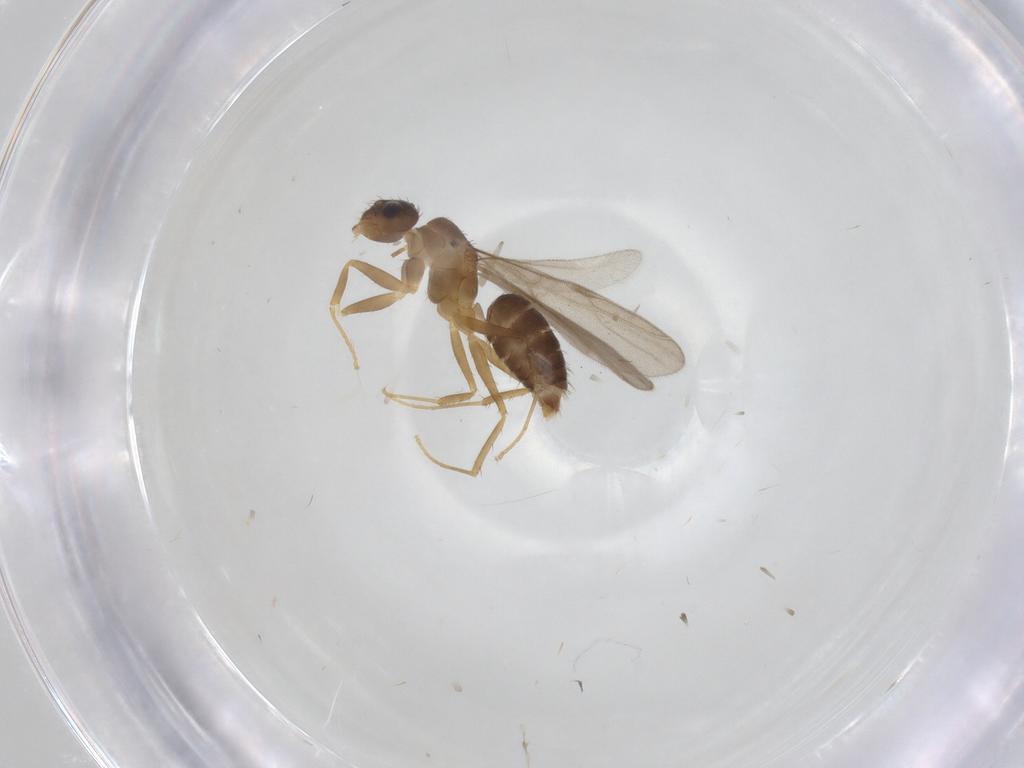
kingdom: Animalia
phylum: Arthropoda
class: Insecta
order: Hymenoptera
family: Formicidae
